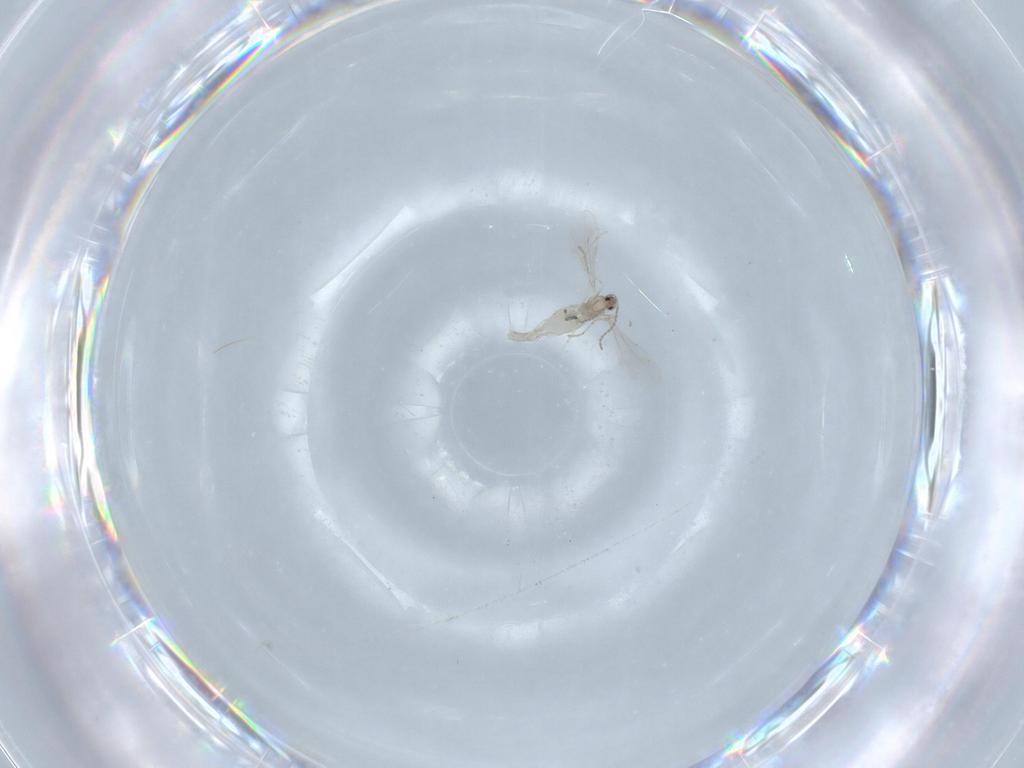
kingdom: Animalia
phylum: Arthropoda
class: Insecta
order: Diptera
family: Cecidomyiidae
